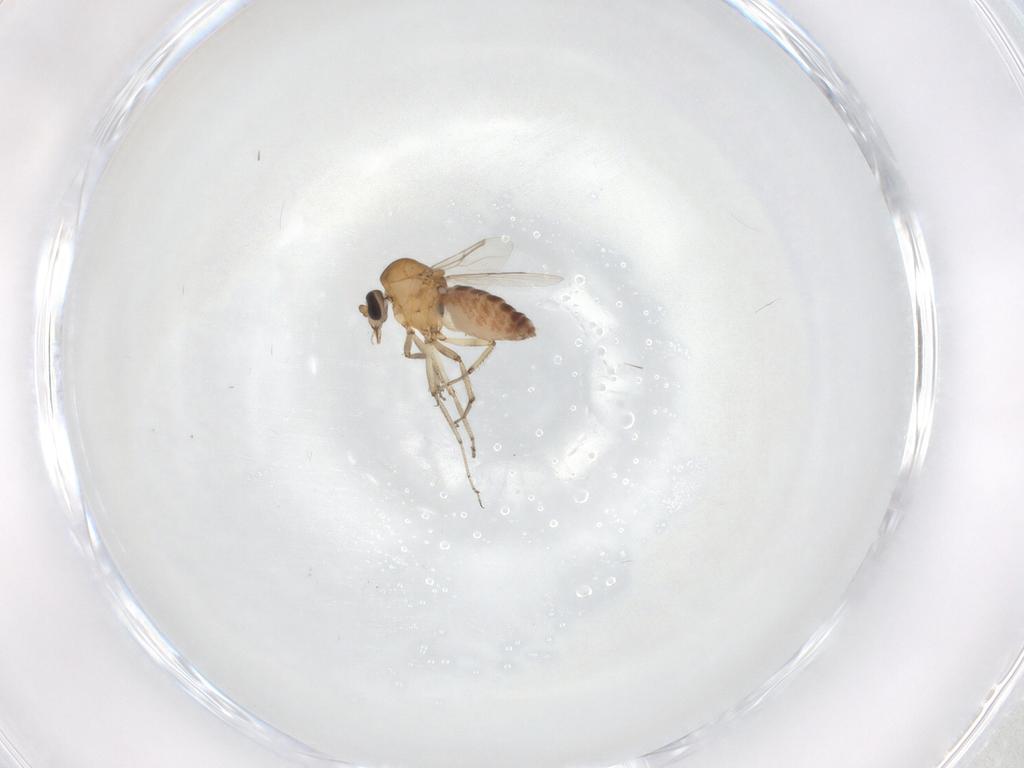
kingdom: Animalia
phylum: Arthropoda
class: Insecta
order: Diptera
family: Ceratopogonidae
